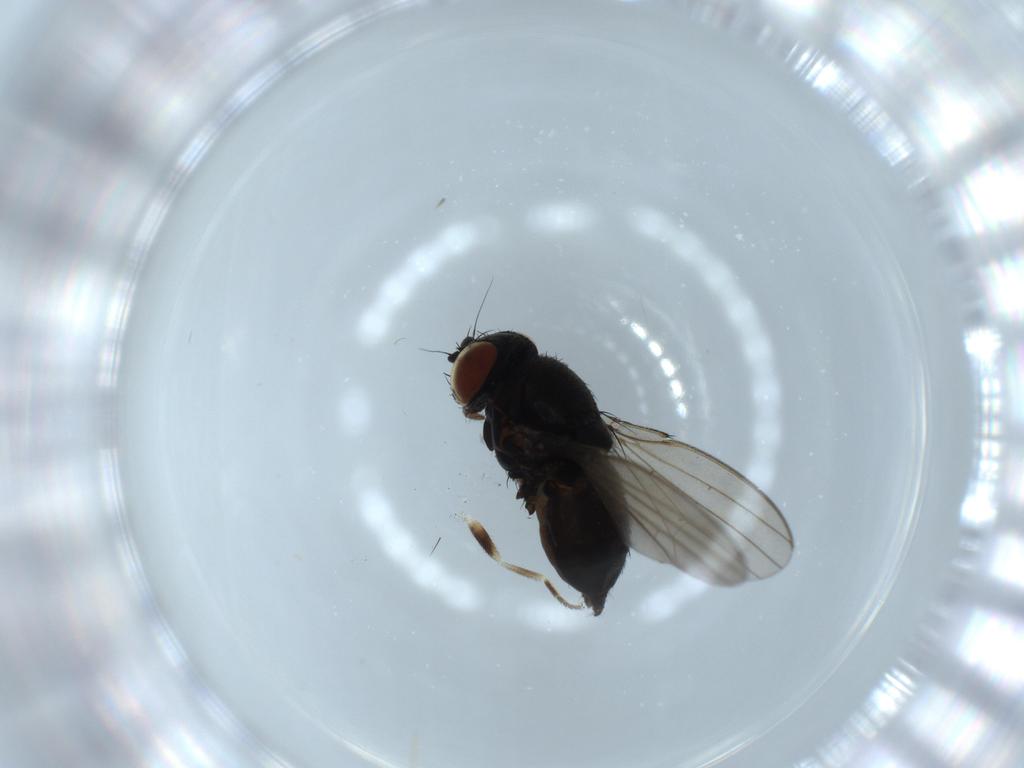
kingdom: Animalia
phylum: Arthropoda
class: Insecta
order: Diptera
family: Milichiidae
